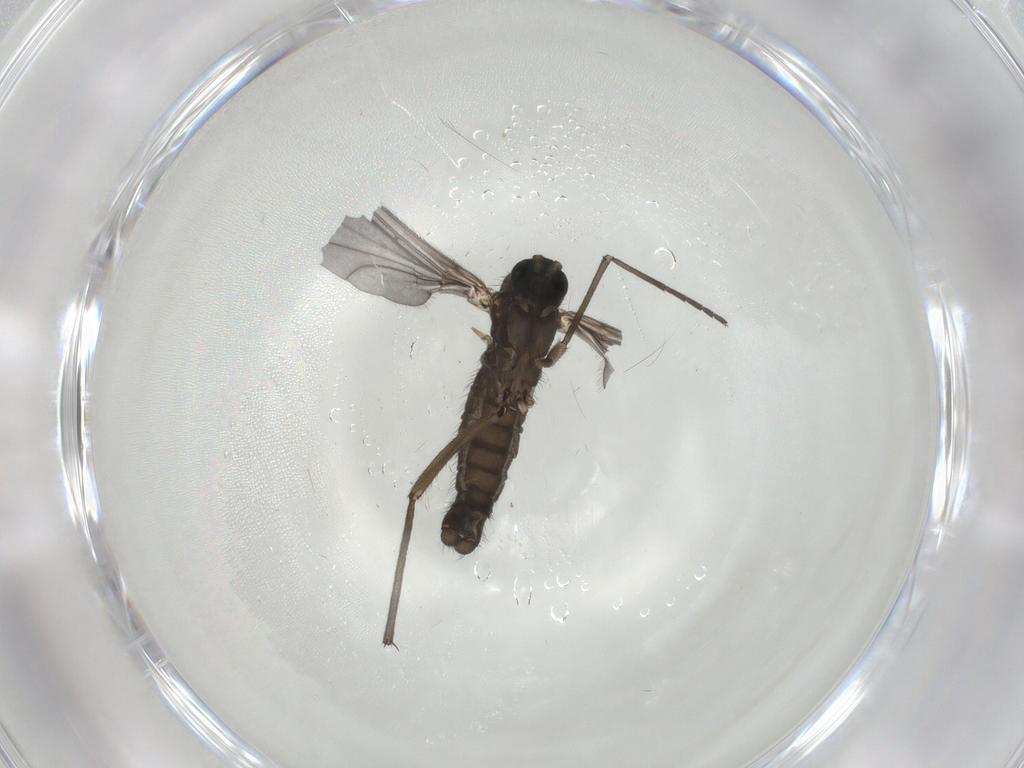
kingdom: Animalia
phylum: Arthropoda
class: Insecta
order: Diptera
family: Sciaridae
